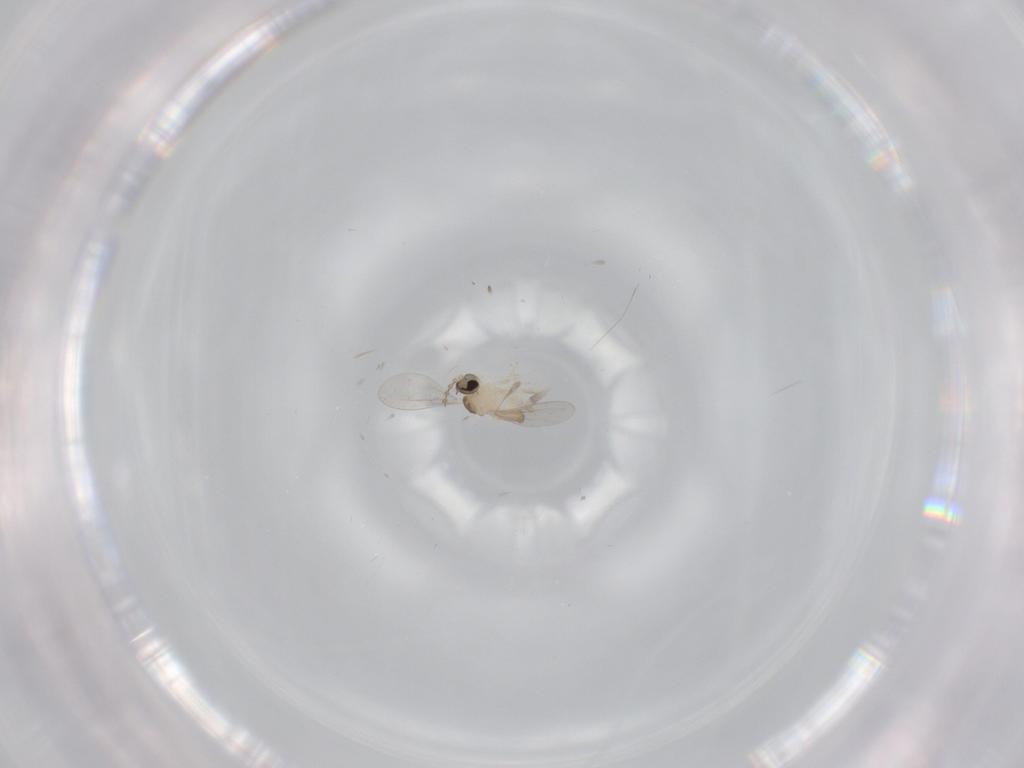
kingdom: Animalia
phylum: Arthropoda
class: Insecta
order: Diptera
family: Cecidomyiidae
